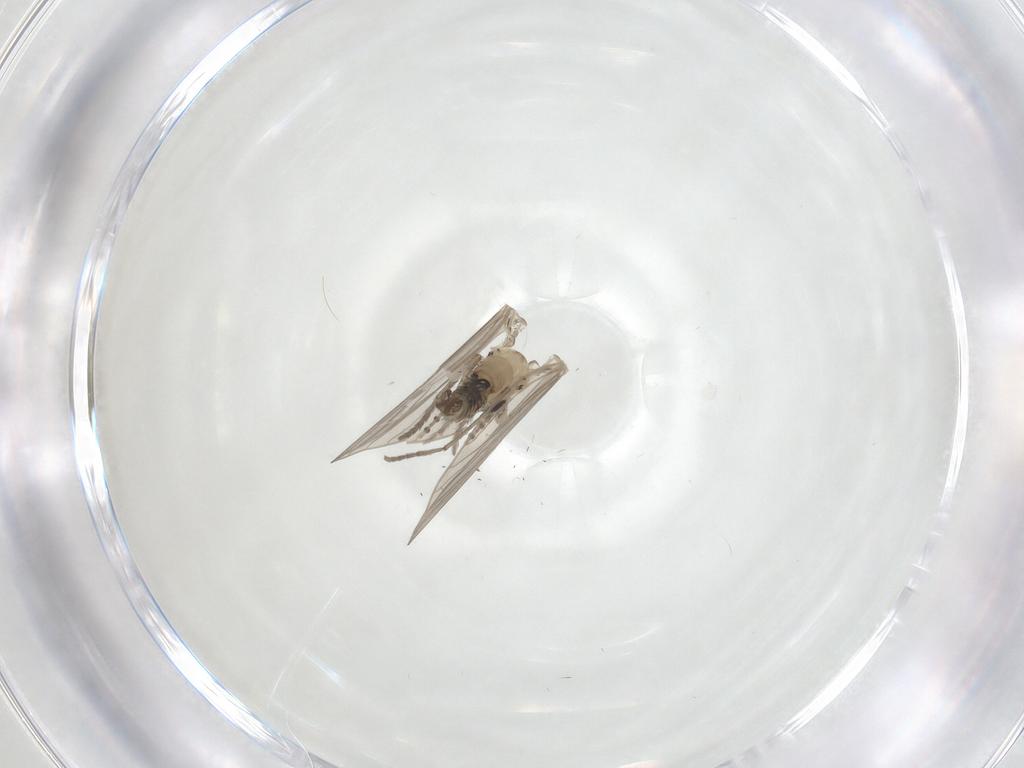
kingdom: Animalia
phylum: Arthropoda
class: Insecta
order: Diptera
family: Psychodidae
